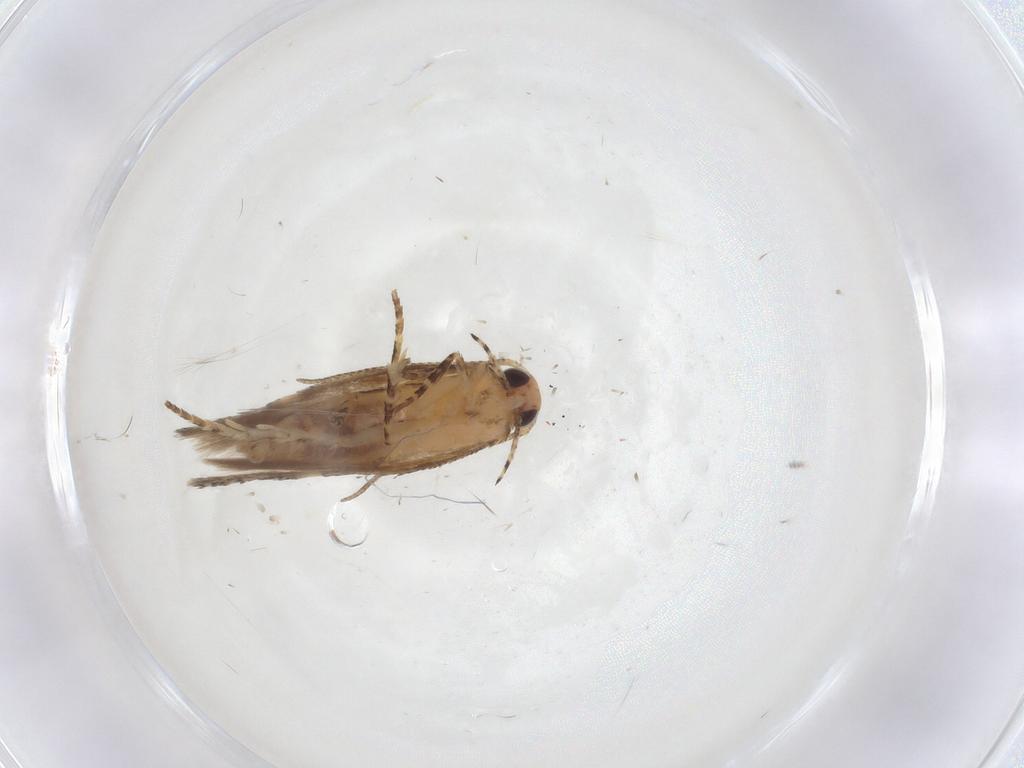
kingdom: Animalia
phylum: Arthropoda
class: Insecta
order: Lepidoptera
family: Gelechiidae
